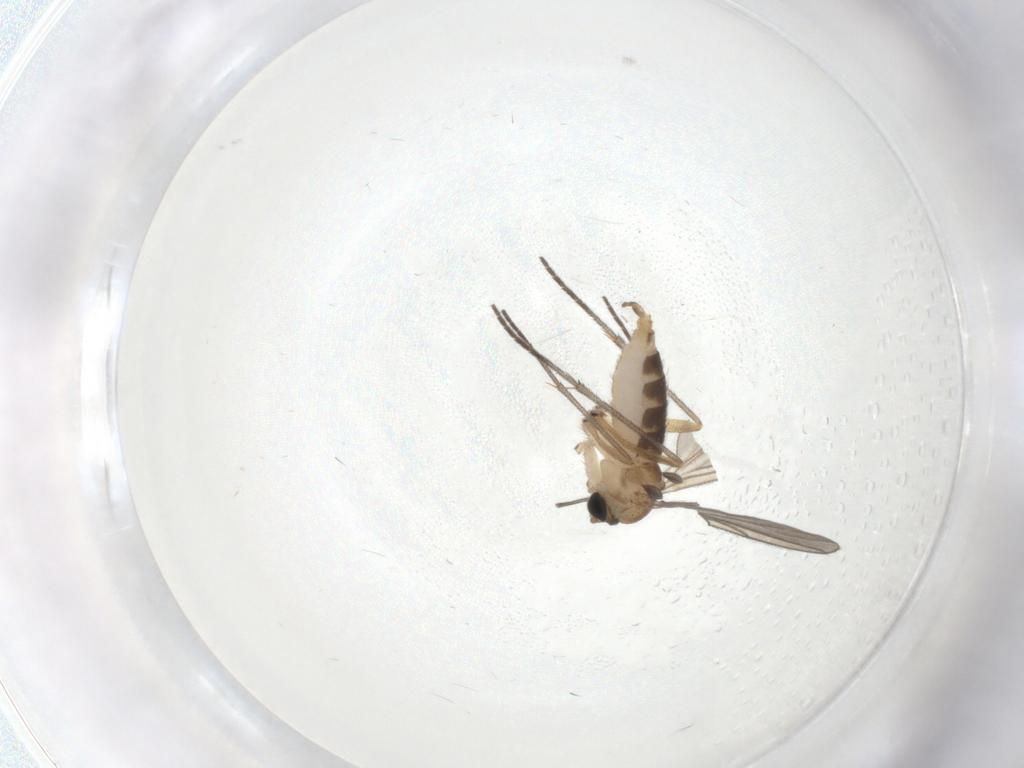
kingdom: Animalia
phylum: Arthropoda
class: Insecta
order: Diptera
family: Sciaridae
